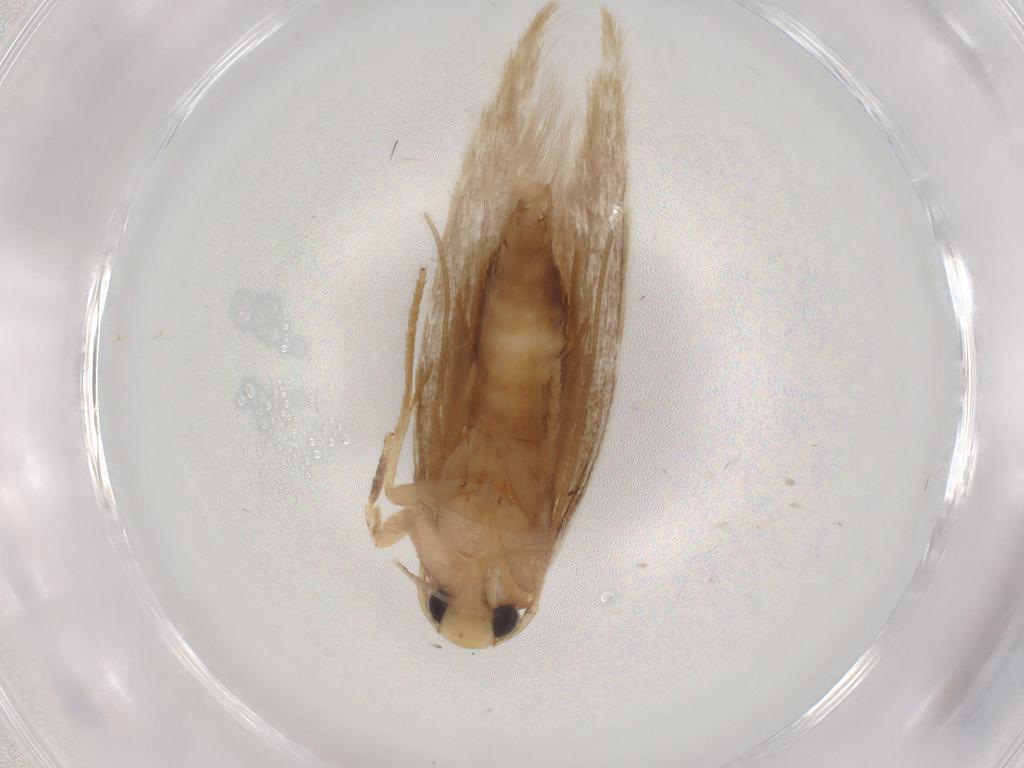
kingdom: Animalia
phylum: Arthropoda
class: Insecta
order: Lepidoptera
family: Tineidae
